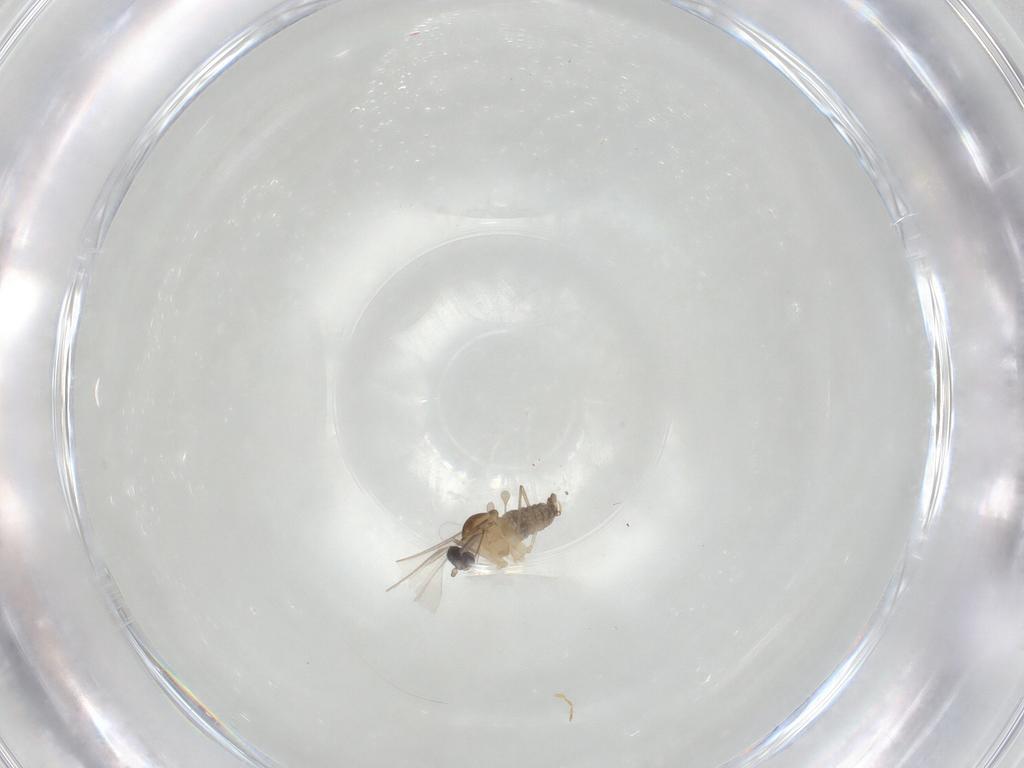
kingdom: Animalia
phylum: Arthropoda
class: Insecta
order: Diptera
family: Cecidomyiidae
